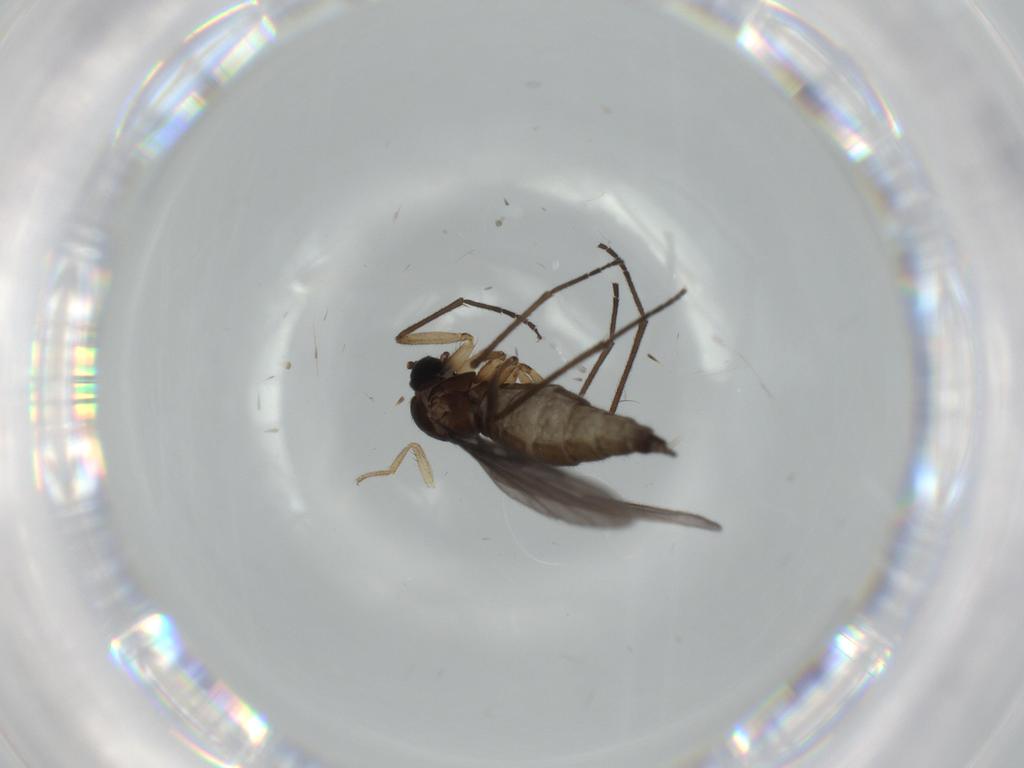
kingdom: Animalia
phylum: Arthropoda
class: Insecta
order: Diptera
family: Sciaridae
